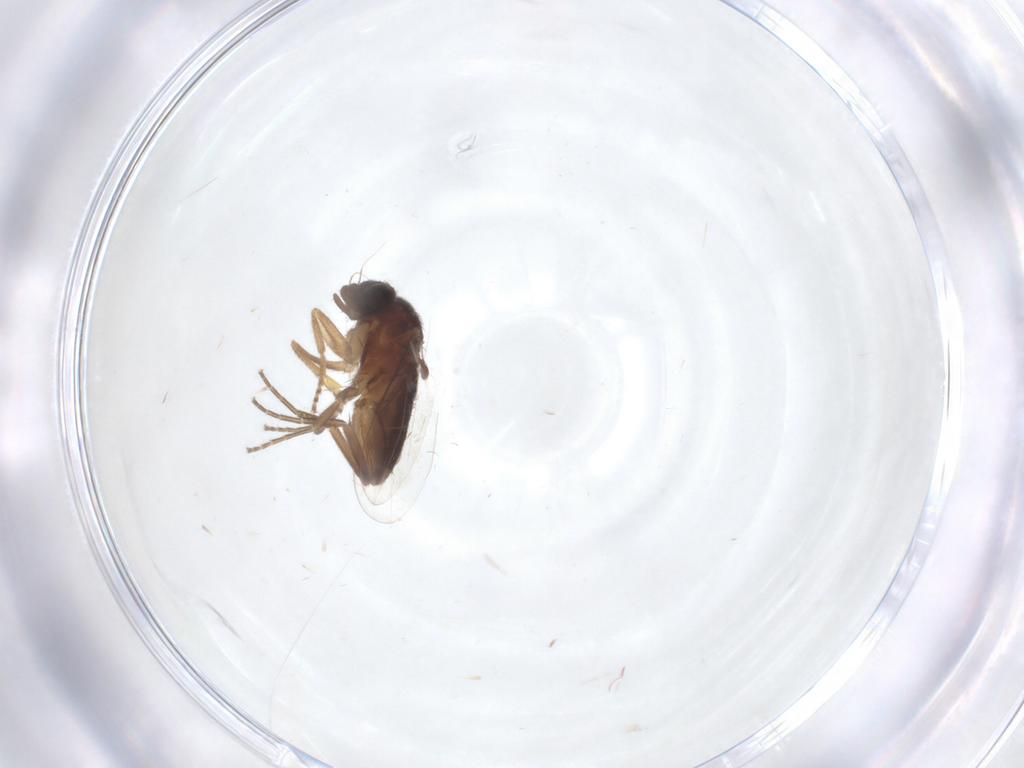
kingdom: Animalia
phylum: Arthropoda
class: Insecta
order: Diptera
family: Phoridae
